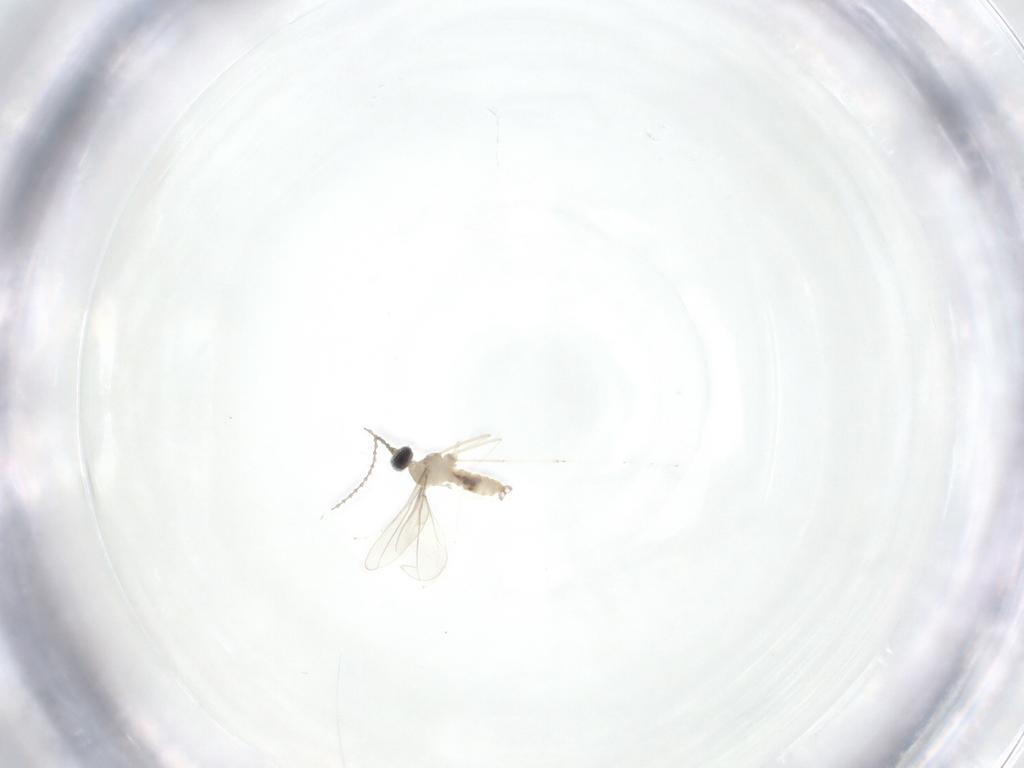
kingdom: Animalia
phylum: Arthropoda
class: Insecta
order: Diptera
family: Cecidomyiidae
